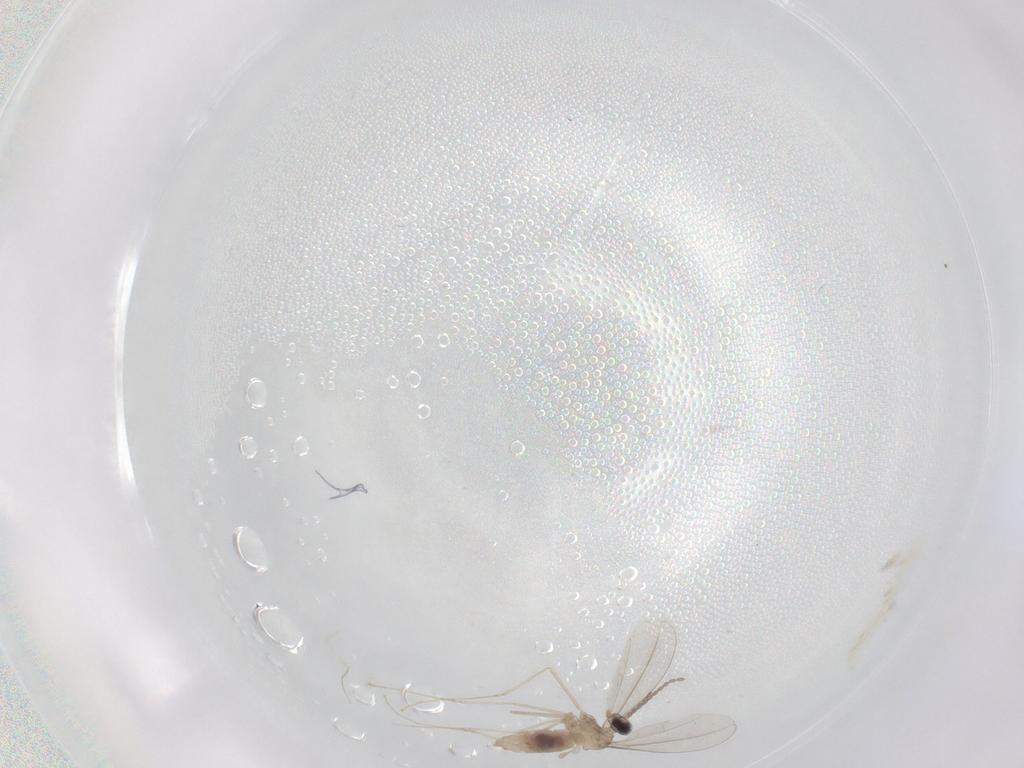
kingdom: Animalia
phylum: Arthropoda
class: Insecta
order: Diptera
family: Cecidomyiidae
